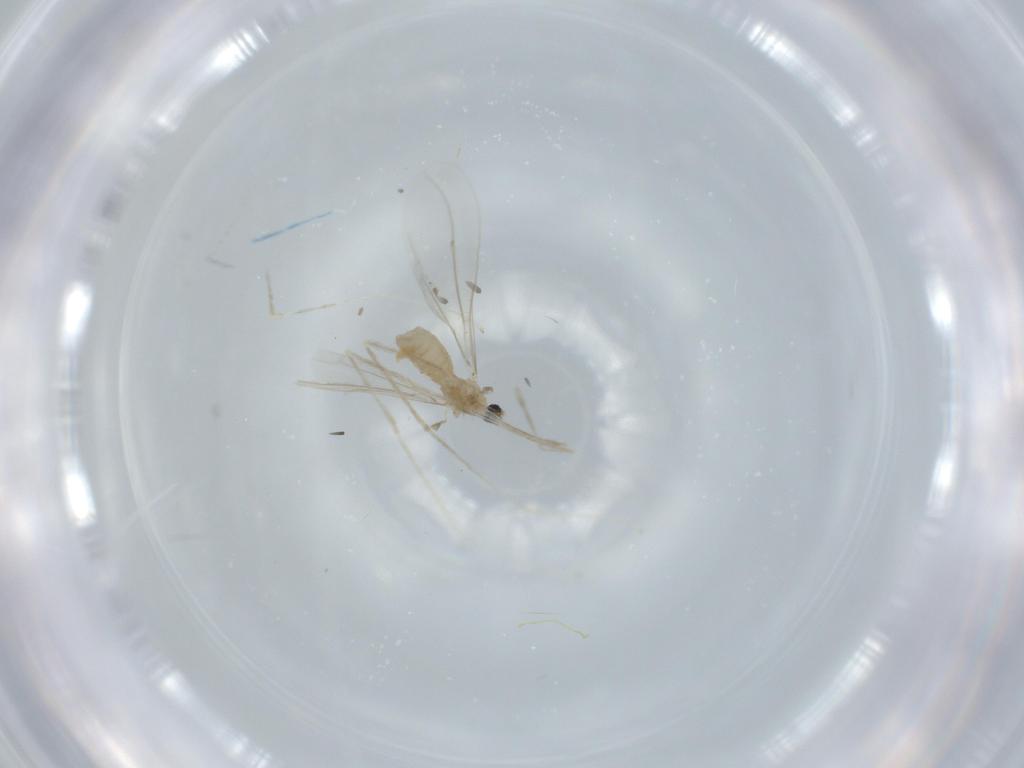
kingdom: Animalia
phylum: Arthropoda
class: Insecta
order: Diptera
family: Cecidomyiidae
